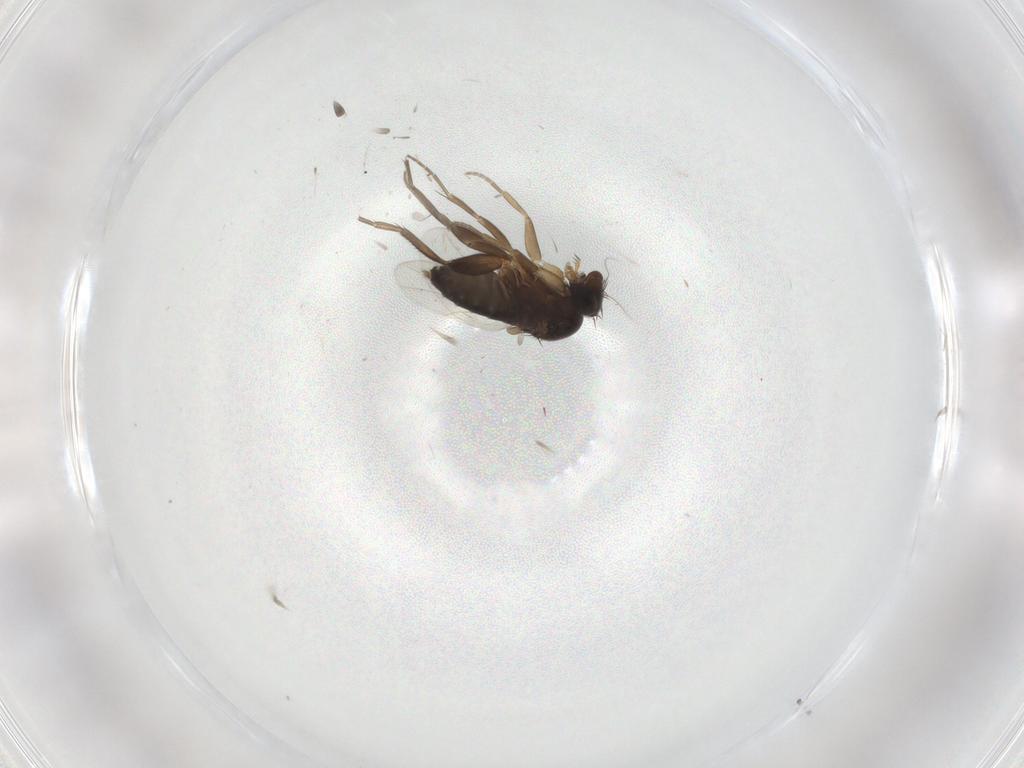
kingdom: Animalia
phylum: Arthropoda
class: Insecta
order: Diptera
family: Phoridae
